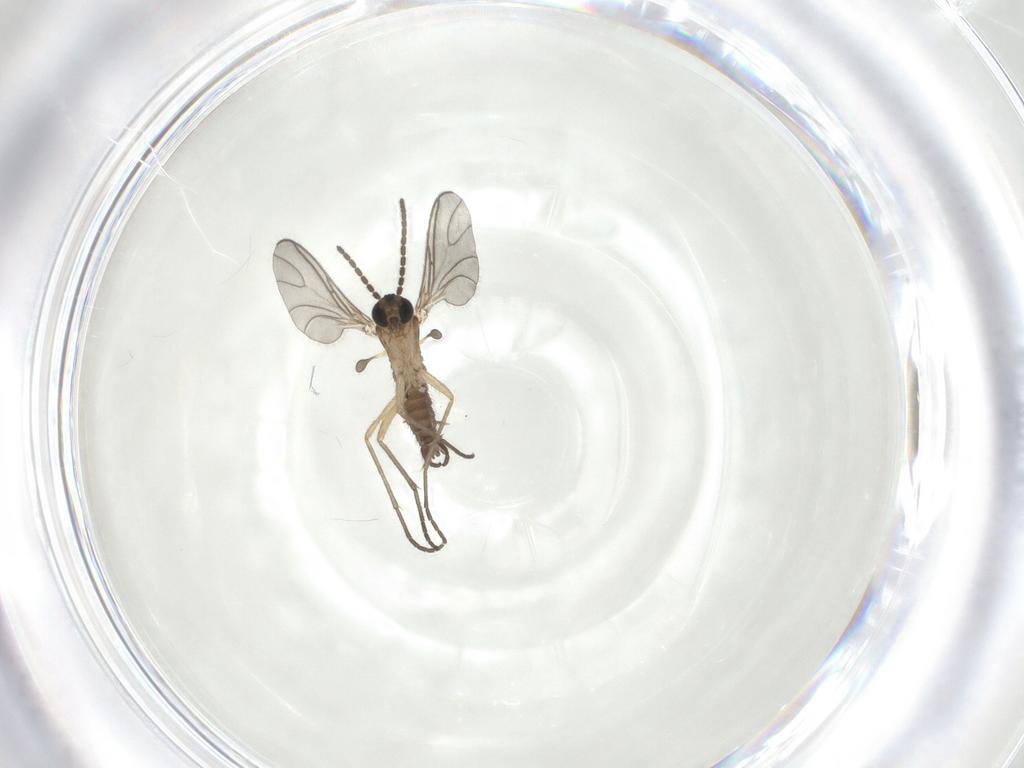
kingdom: Animalia
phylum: Arthropoda
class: Insecta
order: Diptera
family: Sciaridae
